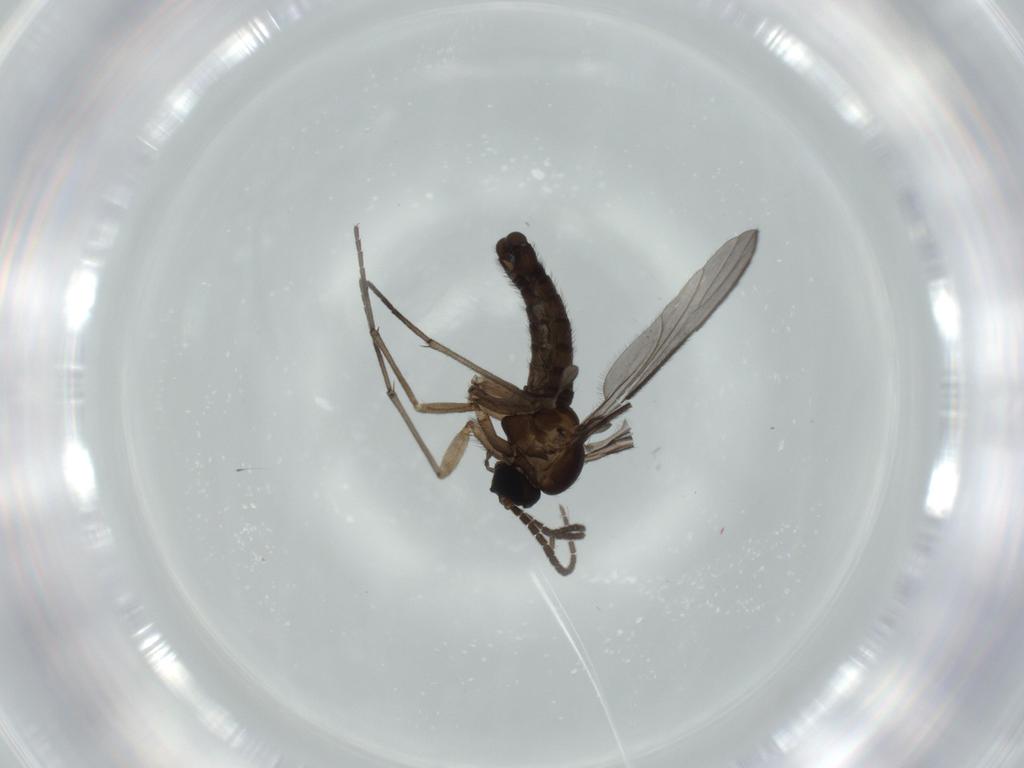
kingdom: Animalia
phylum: Arthropoda
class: Insecta
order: Diptera
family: Sciaridae
